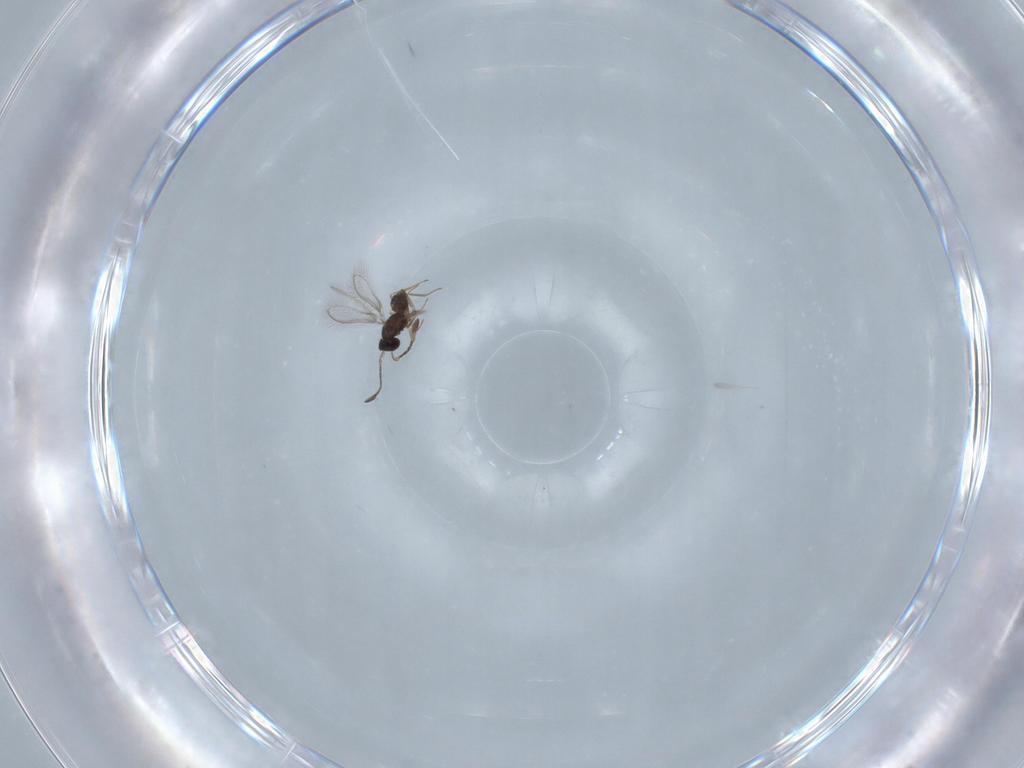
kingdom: Animalia
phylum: Arthropoda
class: Insecta
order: Hymenoptera
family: Mymaridae
